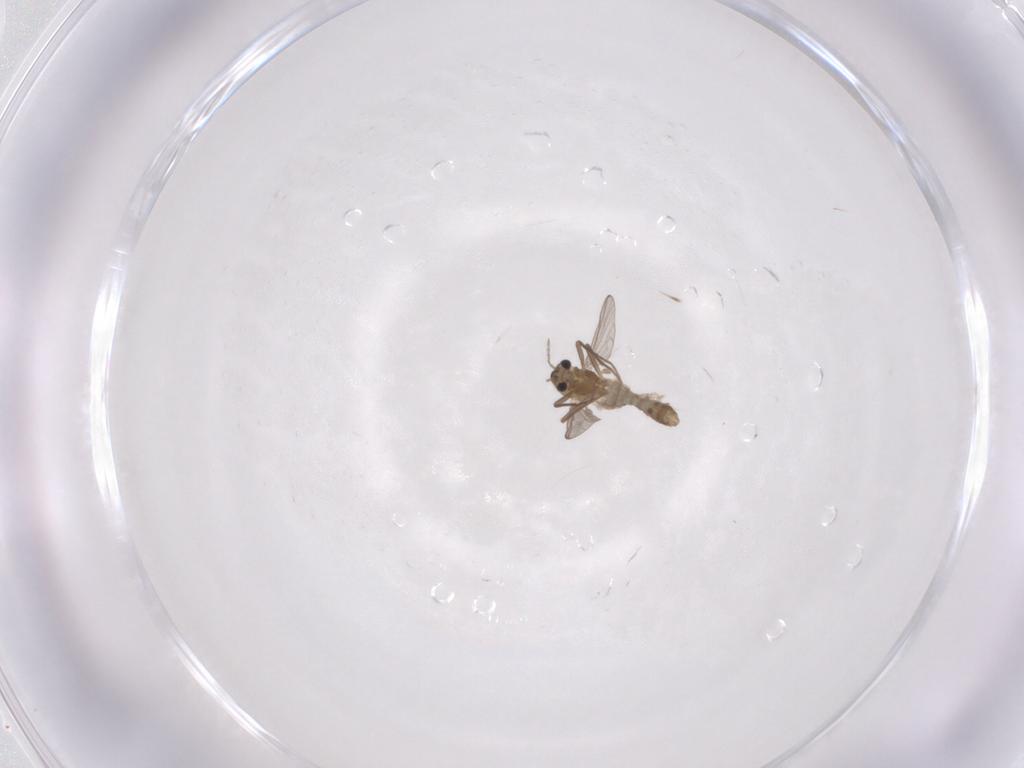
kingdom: Animalia
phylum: Arthropoda
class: Insecta
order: Diptera
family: Chironomidae
